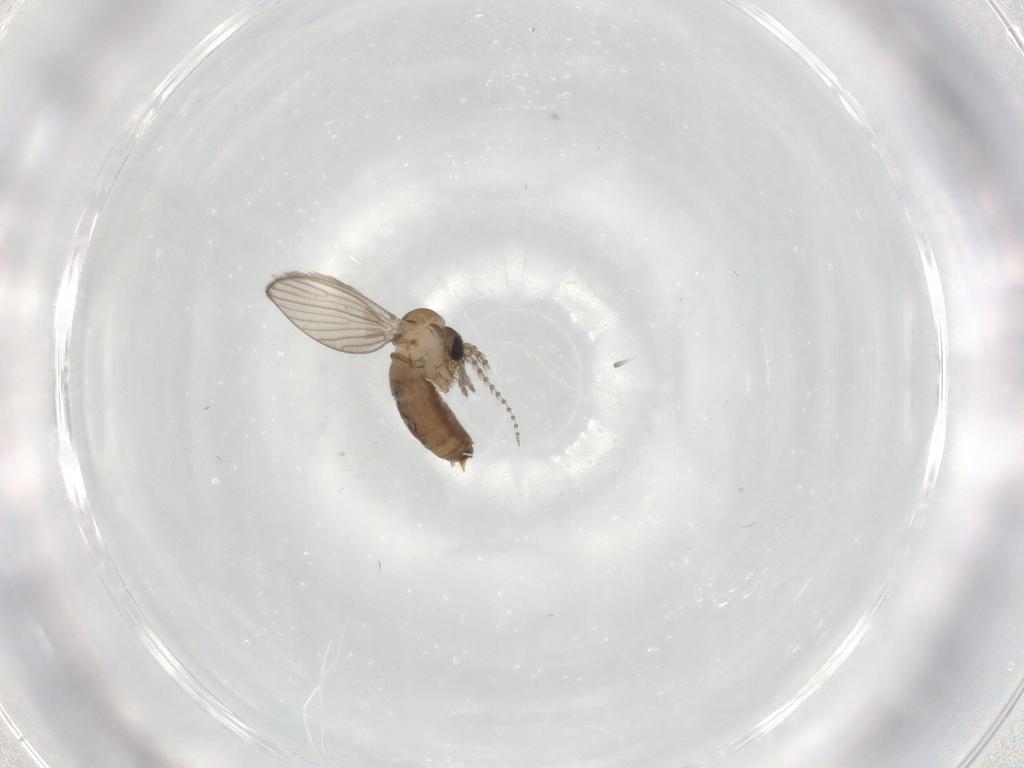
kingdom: Animalia
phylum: Arthropoda
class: Insecta
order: Diptera
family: Psychodidae
